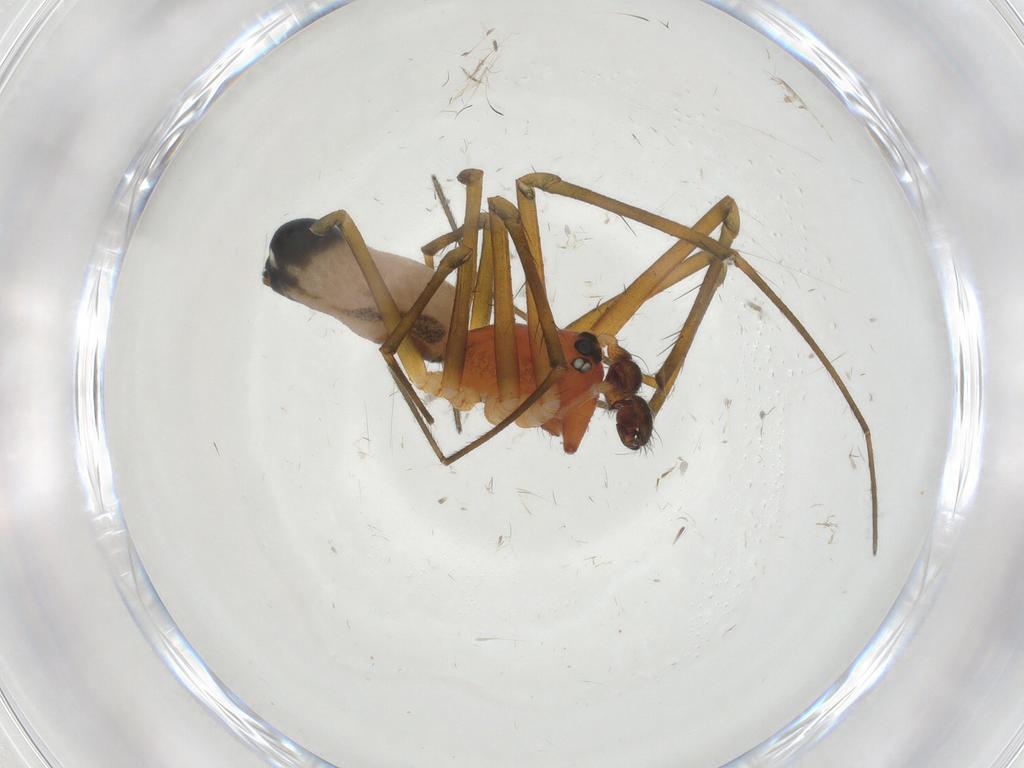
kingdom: Animalia
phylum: Arthropoda
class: Arachnida
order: Araneae
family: Linyphiidae
